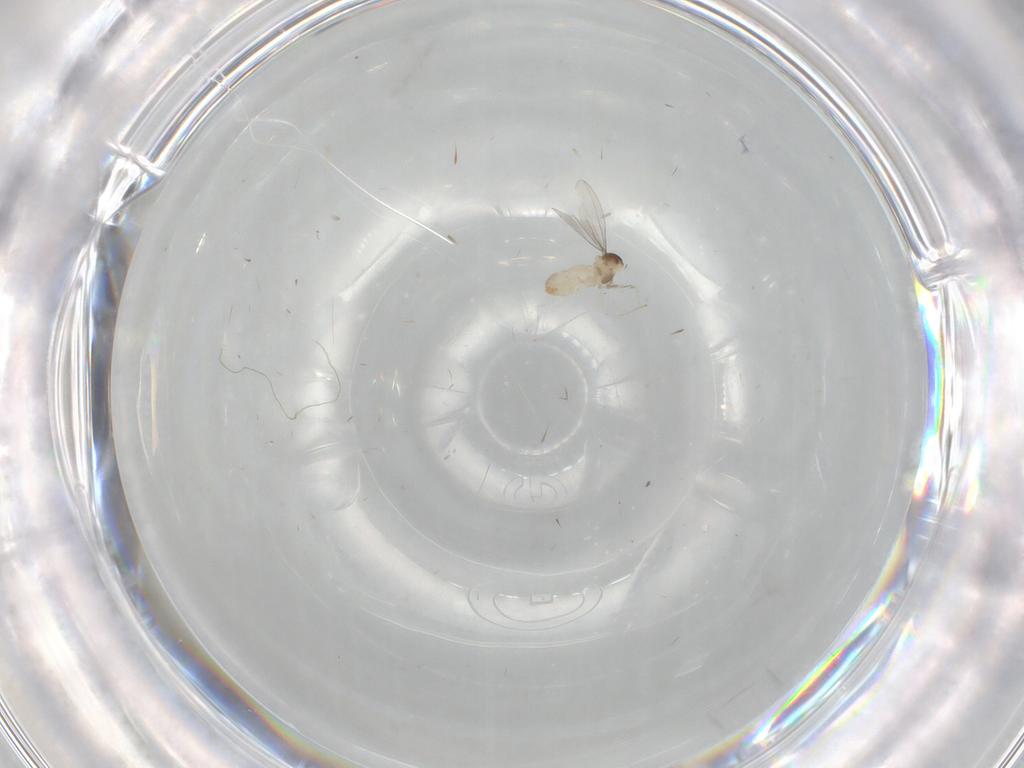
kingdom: Animalia
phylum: Arthropoda
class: Insecta
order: Diptera
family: Cecidomyiidae
